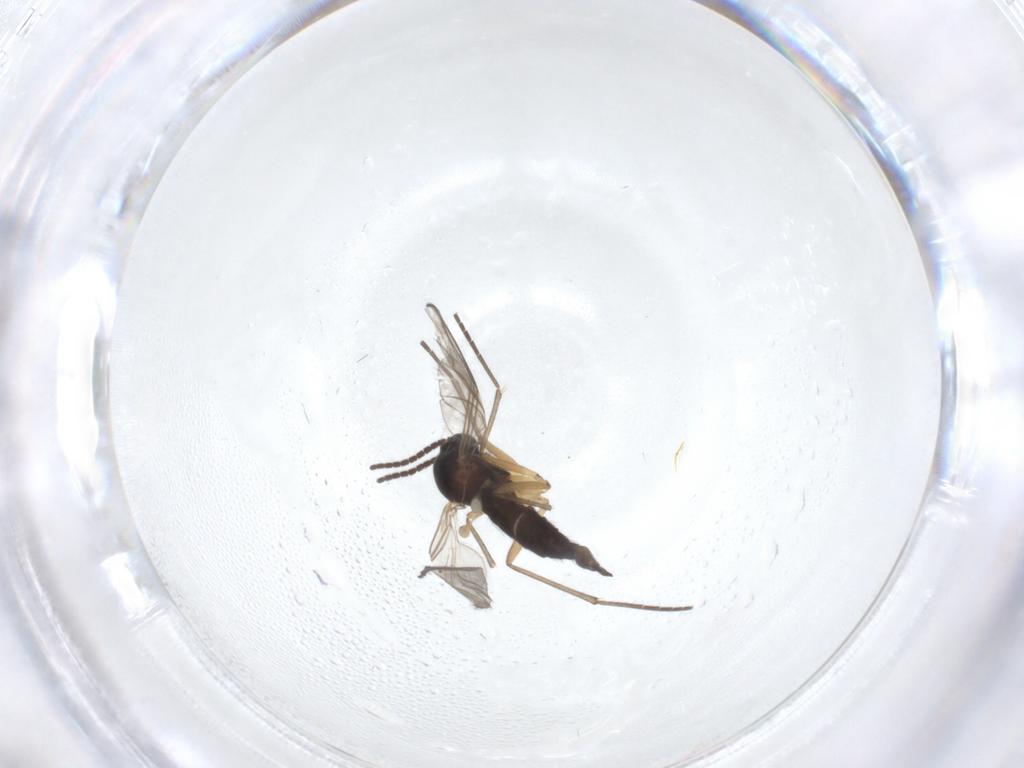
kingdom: Animalia
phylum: Arthropoda
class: Insecta
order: Diptera
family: Sciaridae
